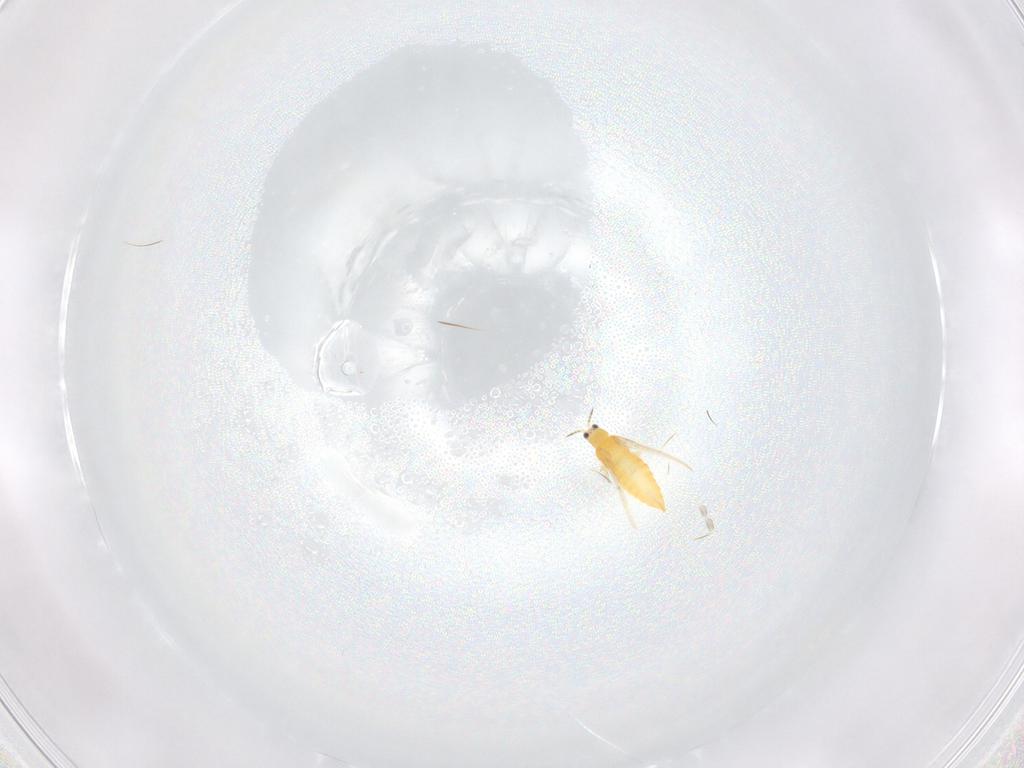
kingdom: Animalia
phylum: Arthropoda
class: Insecta
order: Thysanoptera
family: Thripidae
